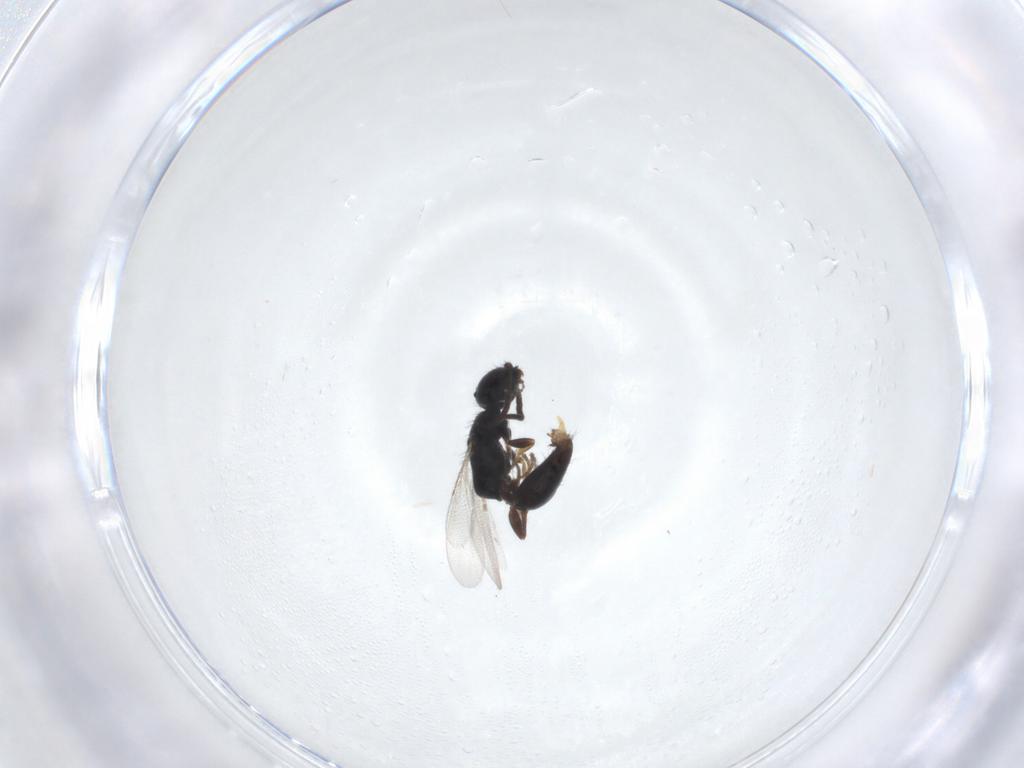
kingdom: Animalia
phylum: Arthropoda
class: Insecta
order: Hymenoptera
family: Bethylidae
